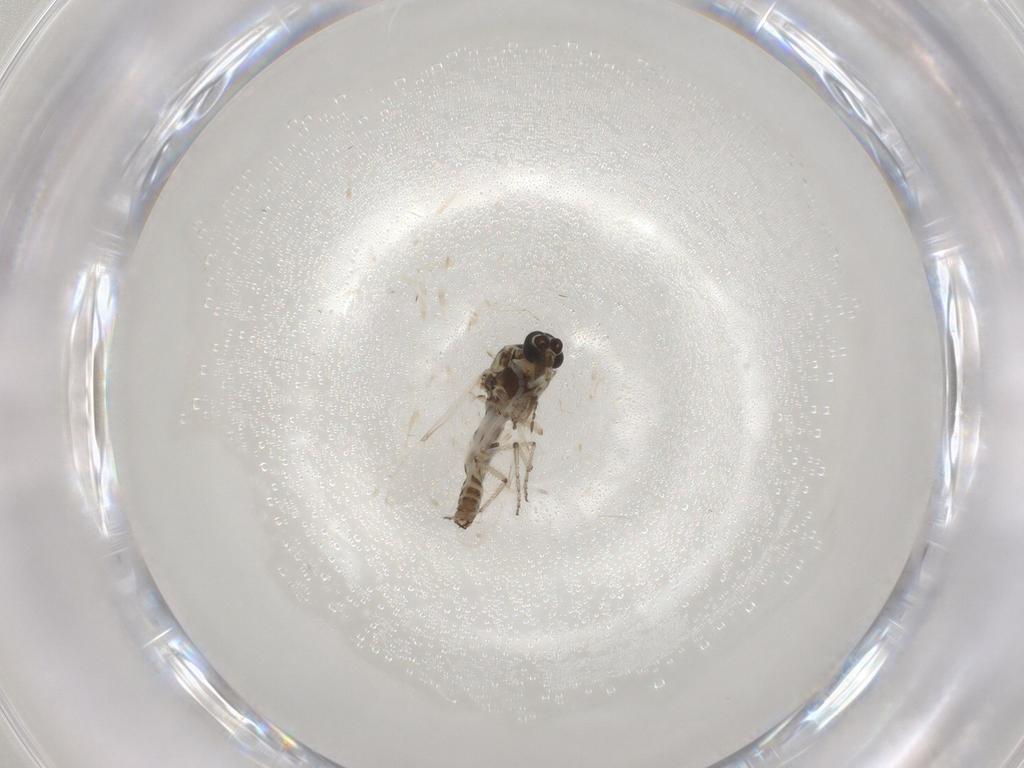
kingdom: Animalia
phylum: Arthropoda
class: Insecta
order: Diptera
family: Ceratopogonidae
